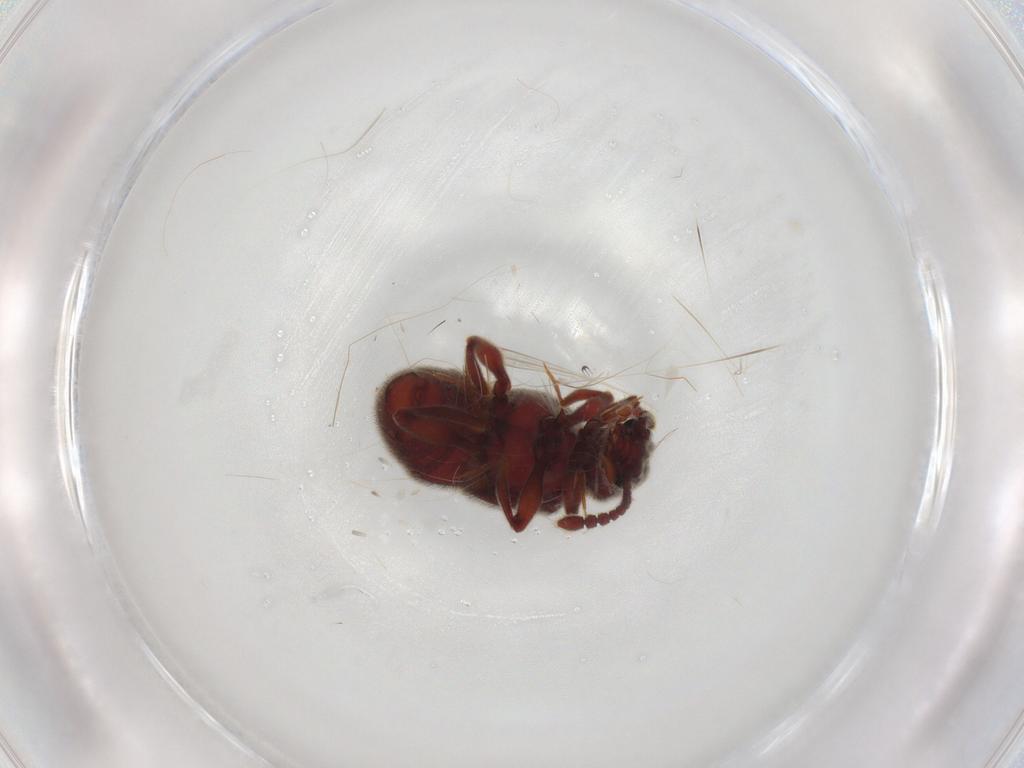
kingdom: Animalia
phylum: Arthropoda
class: Insecta
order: Coleoptera
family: Staphylinidae
